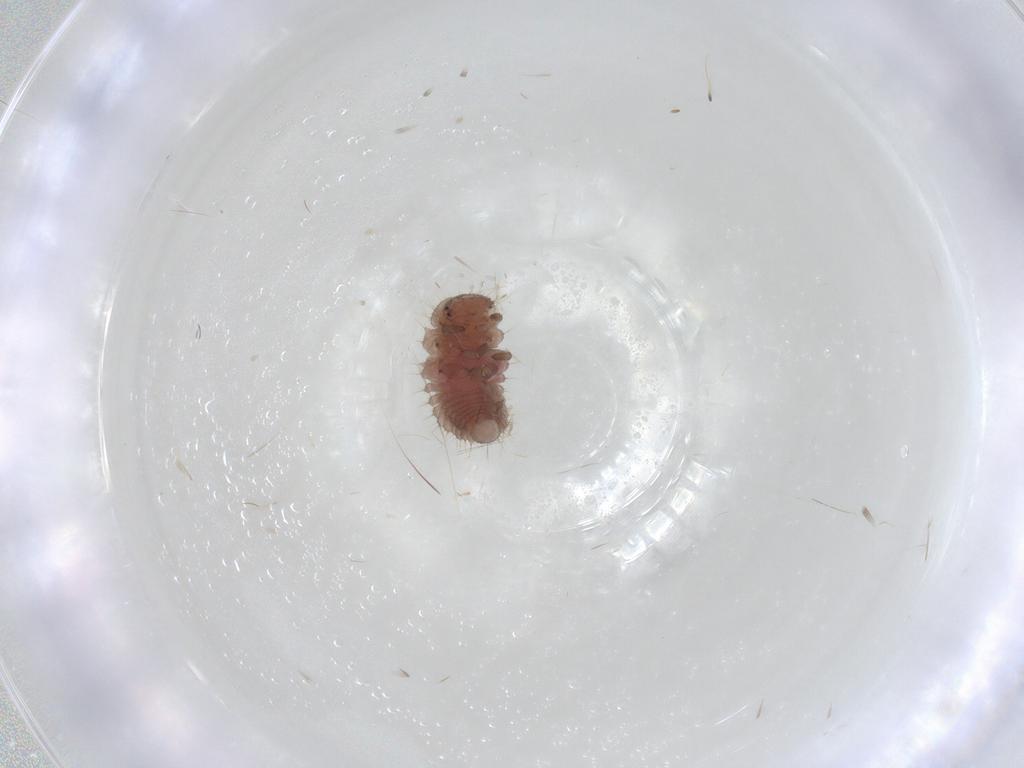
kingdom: Animalia
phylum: Arthropoda
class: Insecta
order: Coleoptera
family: Coccinellidae
